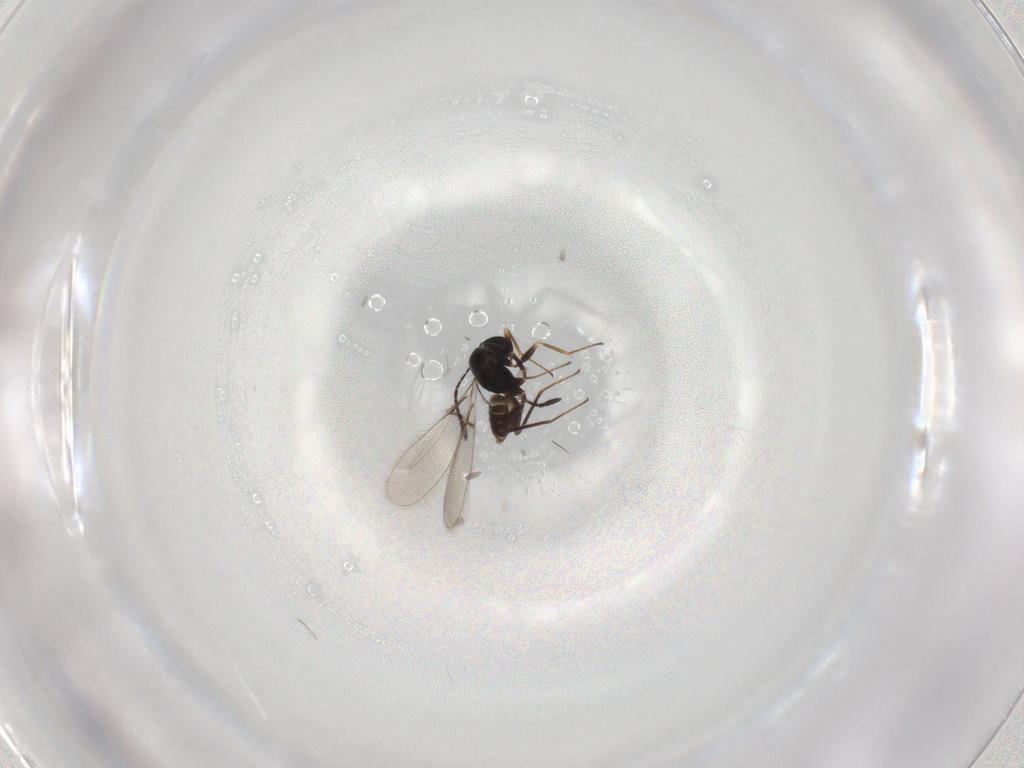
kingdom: Animalia
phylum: Arthropoda
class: Insecta
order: Hymenoptera
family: Mymaridae
